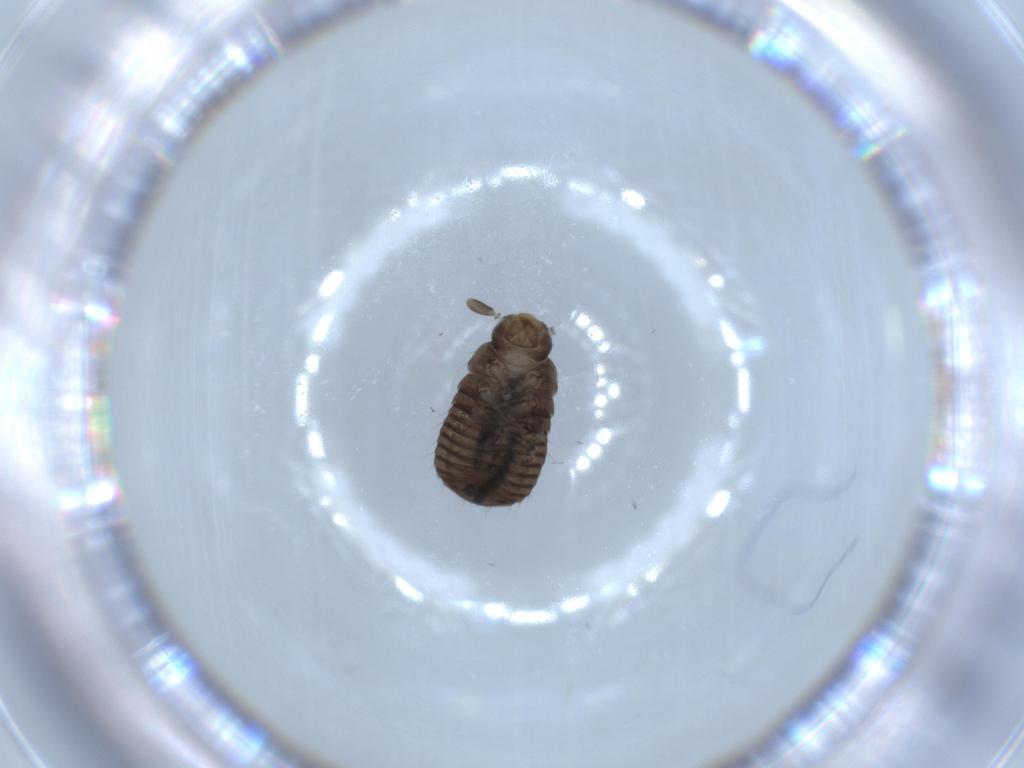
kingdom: Animalia
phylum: Arthropoda
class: Insecta
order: Coleoptera
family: Tenebrionidae
